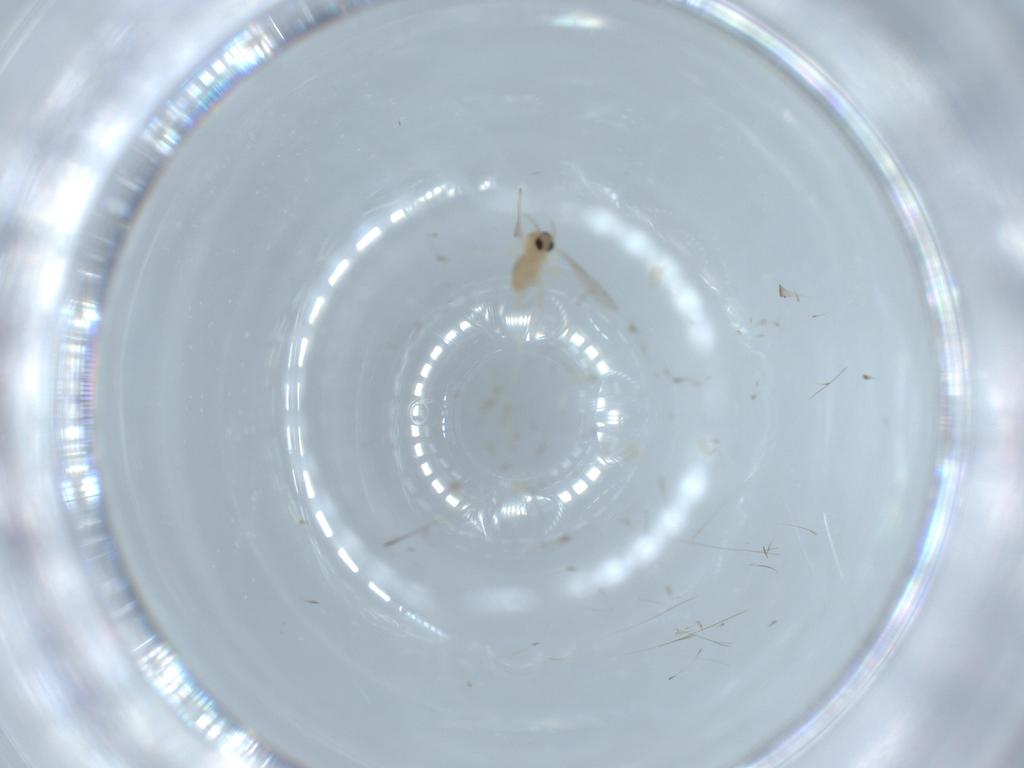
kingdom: Animalia
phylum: Arthropoda
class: Insecta
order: Diptera
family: Cecidomyiidae
